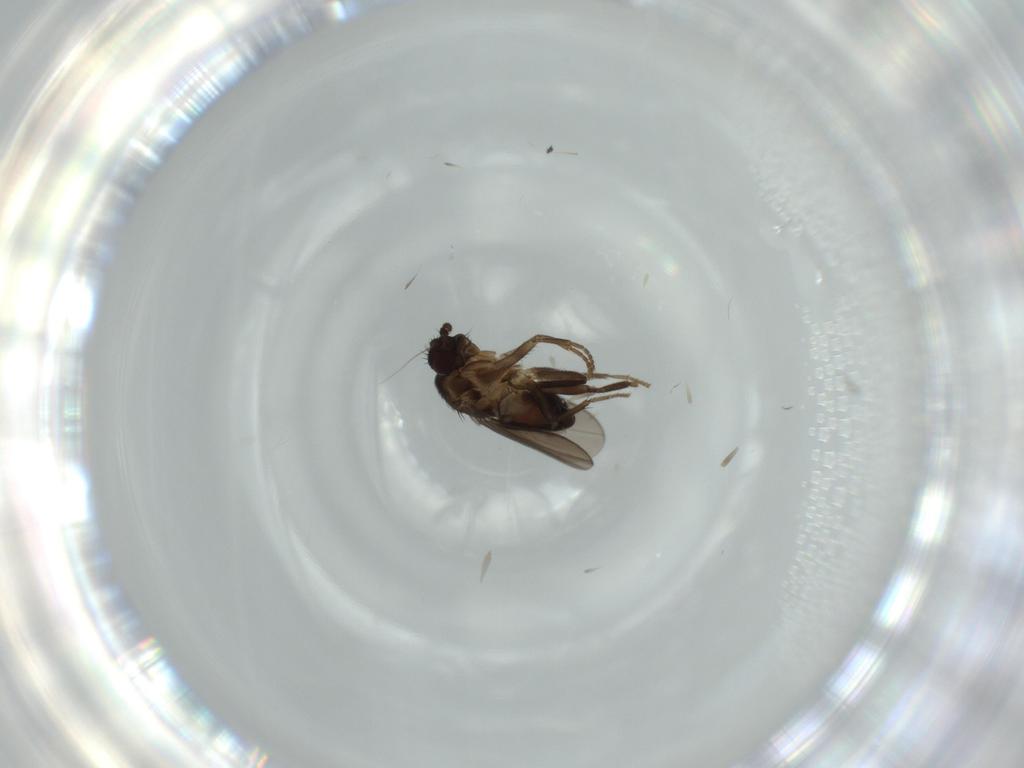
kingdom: Animalia
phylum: Arthropoda
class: Insecta
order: Diptera
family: Sphaeroceridae
